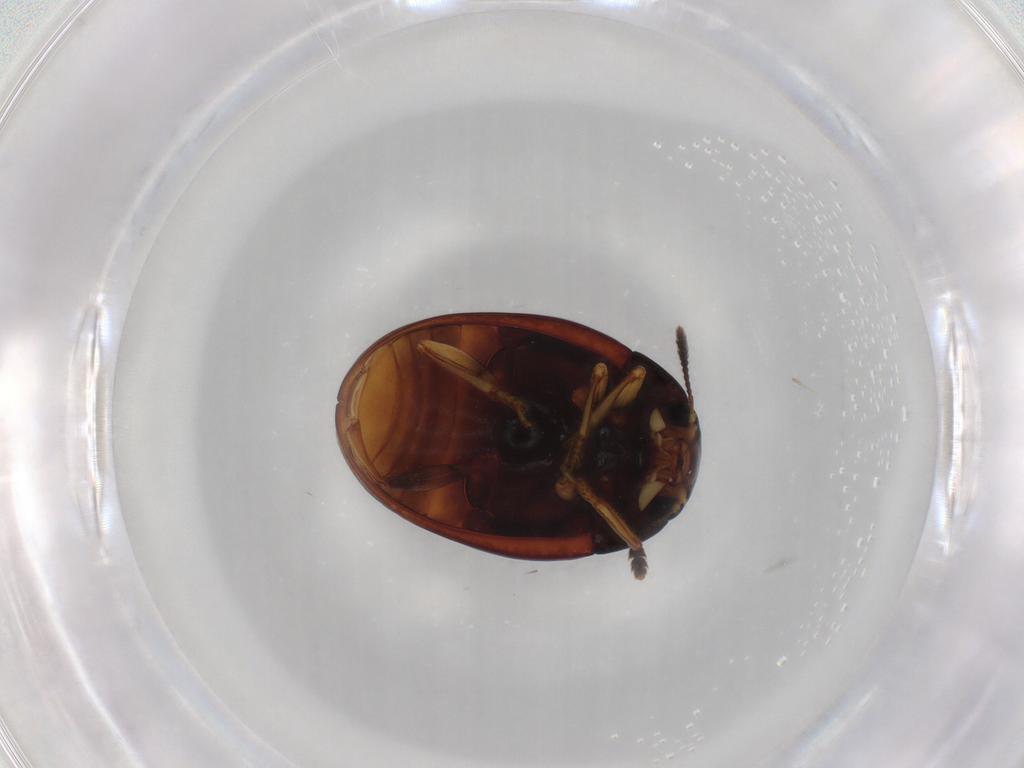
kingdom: Animalia
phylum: Arthropoda
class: Insecta
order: Coleoptera
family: Erotylidae
